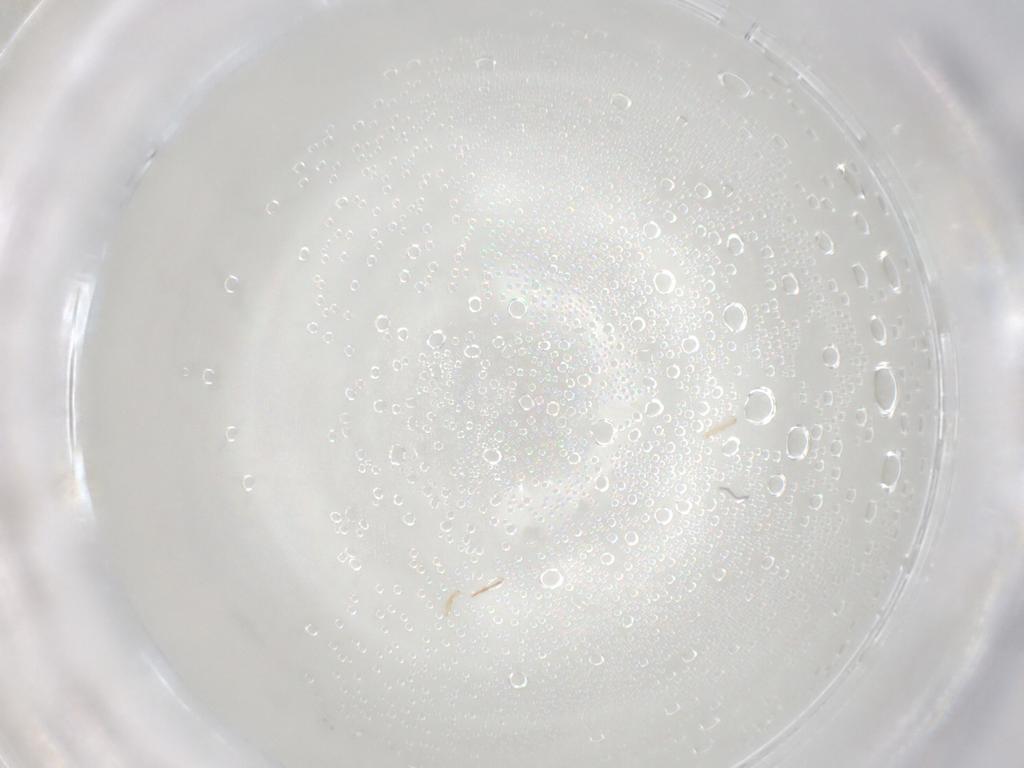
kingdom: Animalia
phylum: Arthropoda
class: Arachnida
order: Trombidiformes
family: Eupodidae
